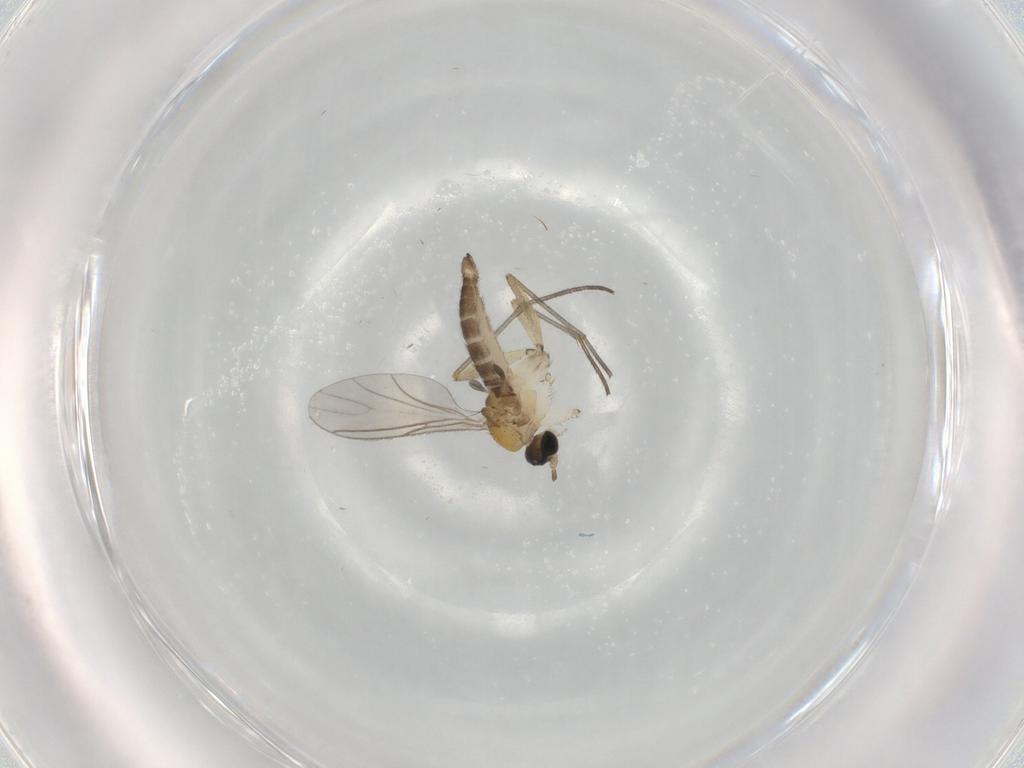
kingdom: Animalia
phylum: Arthropoda
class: Insecta
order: Diptera
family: Sciaridae
